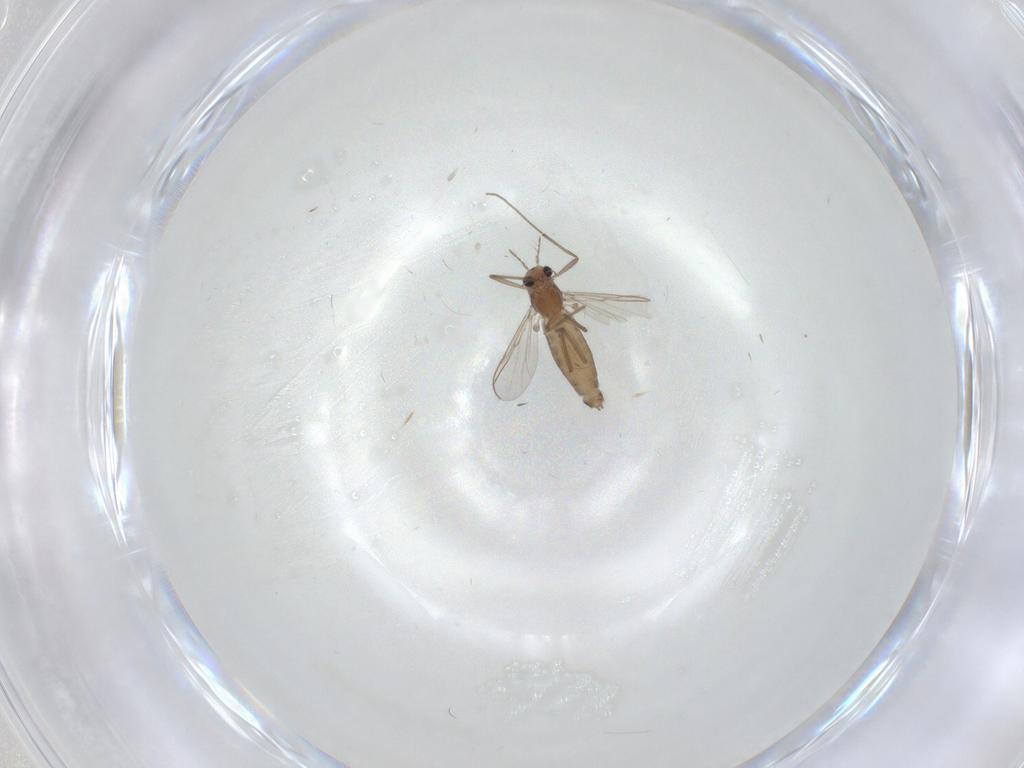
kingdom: Animalia
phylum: Arthropoda
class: Insecta
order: Diptera
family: Chironomidae
